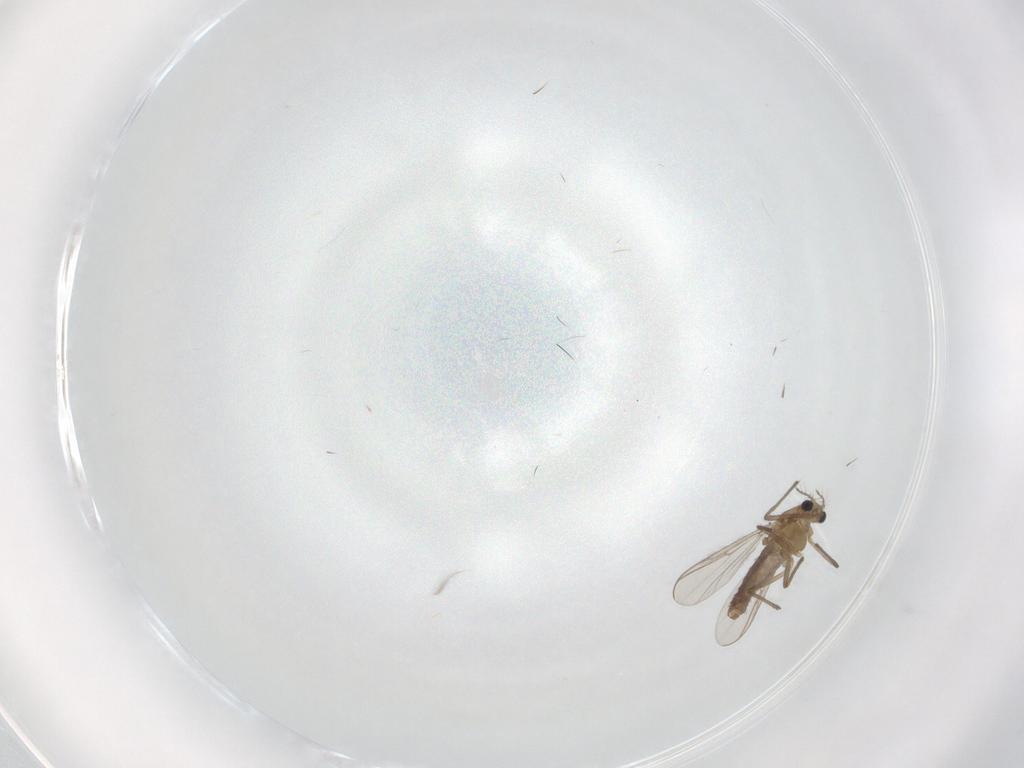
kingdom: Animalia
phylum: Arthropoda
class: Insecta
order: Diptera
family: Chironomidae
